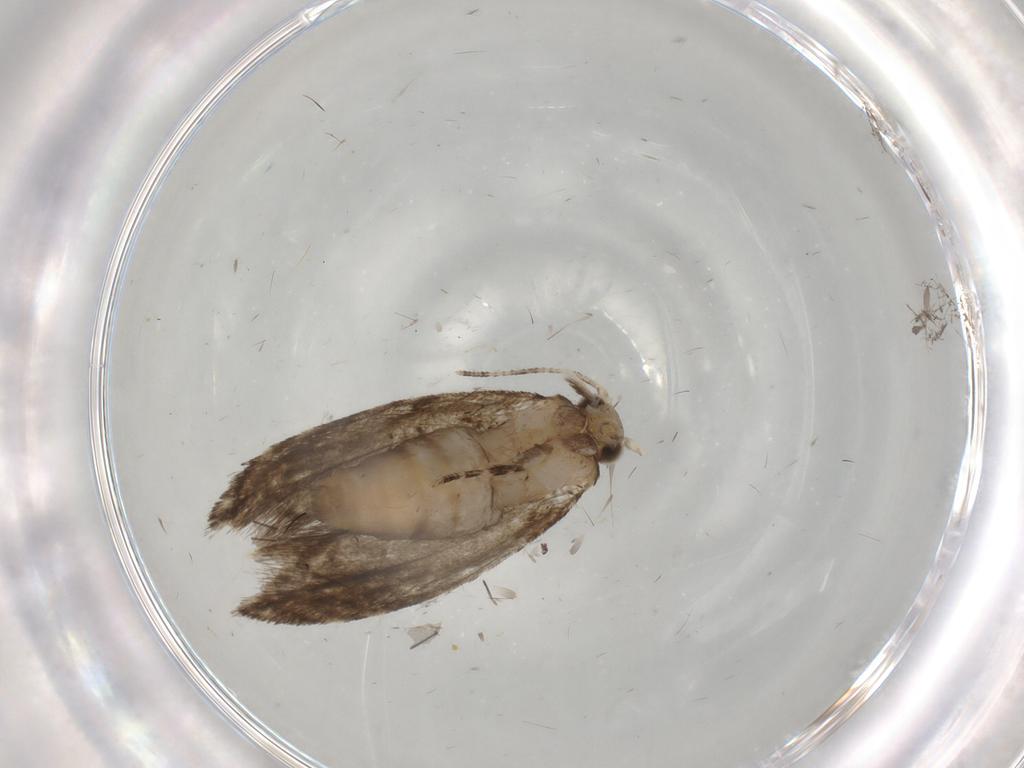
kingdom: Animalia
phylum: Arthropoda
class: Insecta
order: Lepidoptera
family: Tineidae
